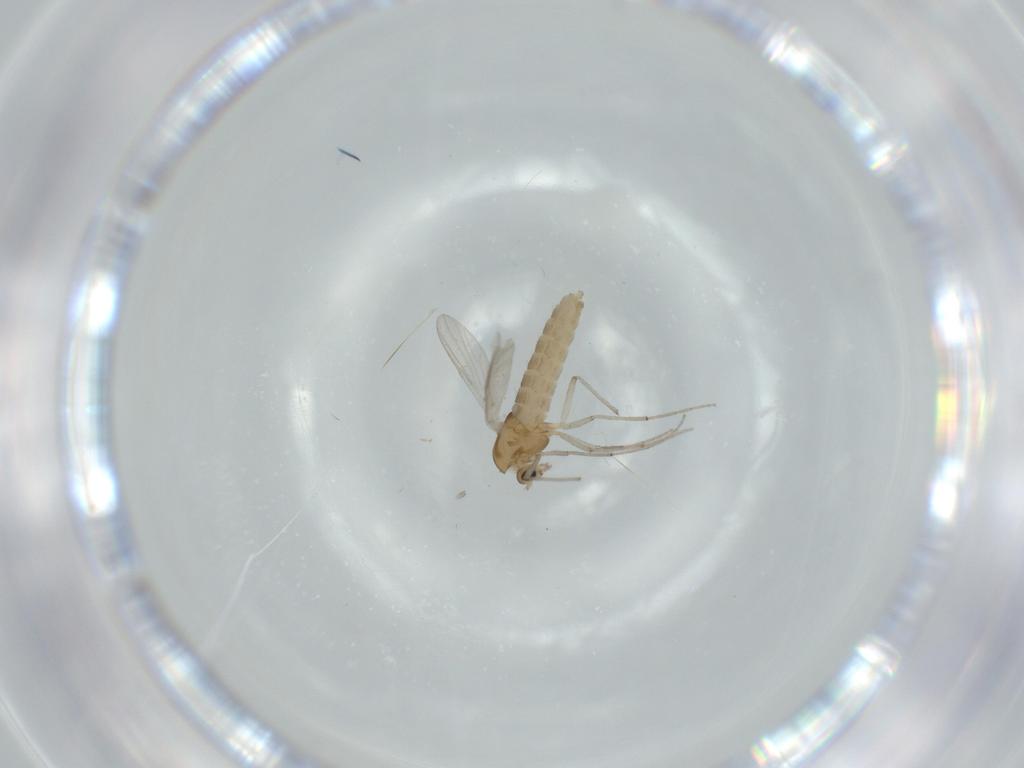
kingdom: Animalia
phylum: Arthropoda
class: Insecta
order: Diptera
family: Chironomidae
